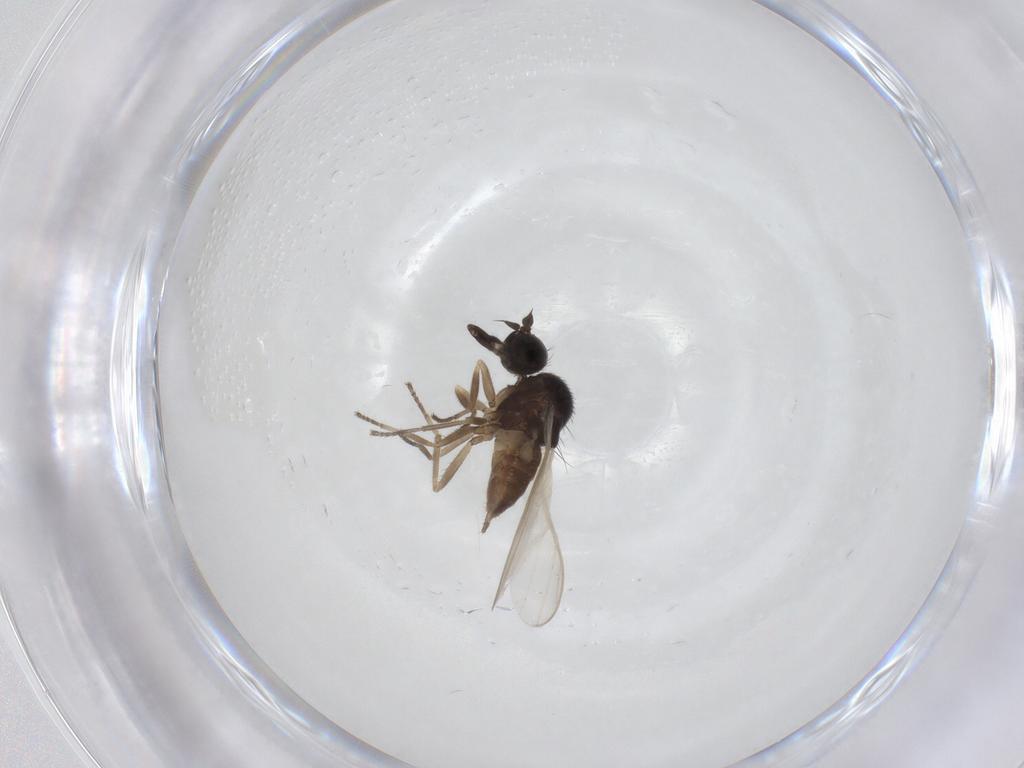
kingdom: Animalia
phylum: Arthropoda
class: Insecta
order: Diptera
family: Hybotidae
